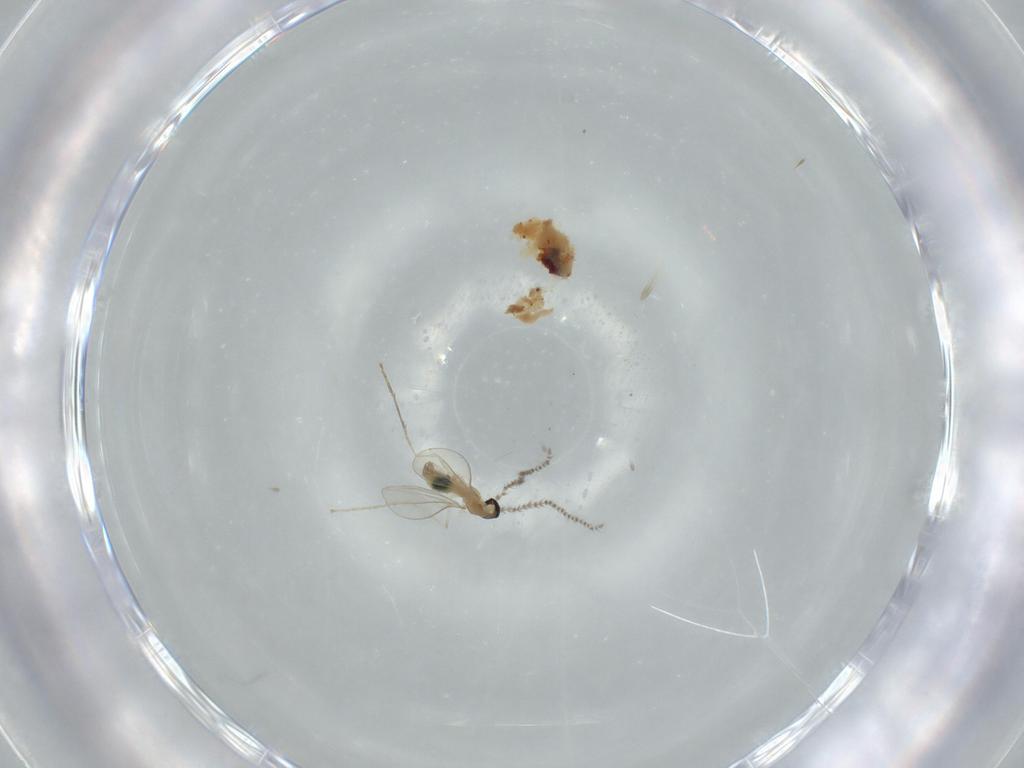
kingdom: Animalia
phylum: Arthropoda
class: Insecta
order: Diptera
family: Cecidomyiidae
